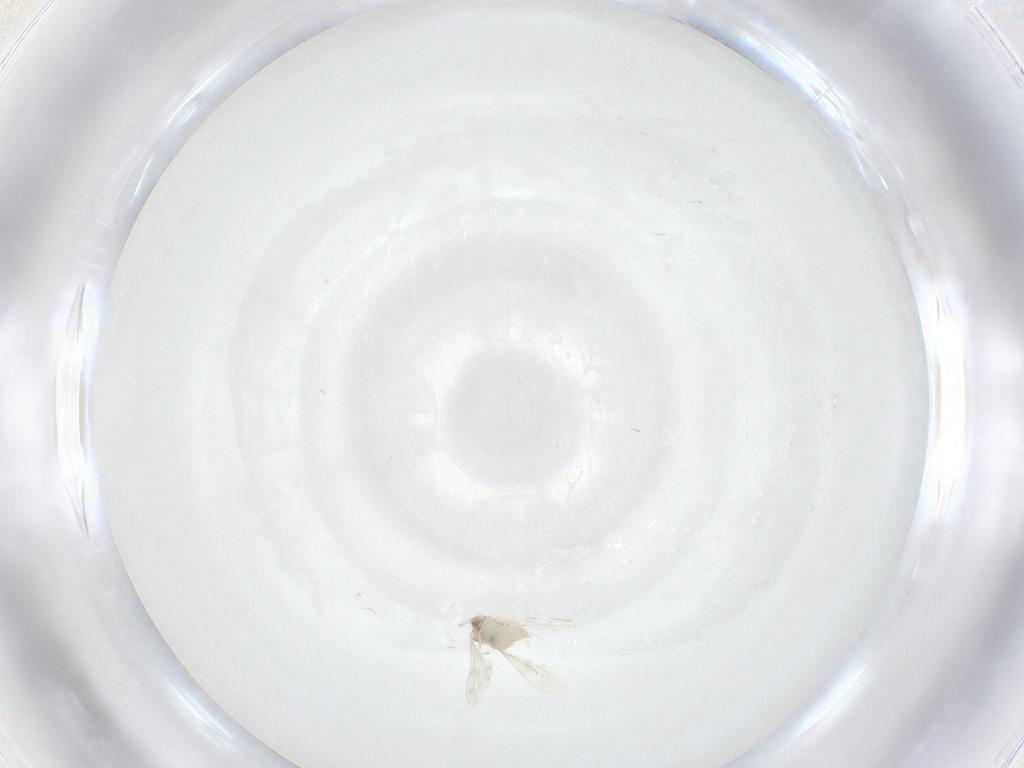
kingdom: Animalia
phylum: Arthropoda
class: Insecta
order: Diptera
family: Cecidomyiidae
